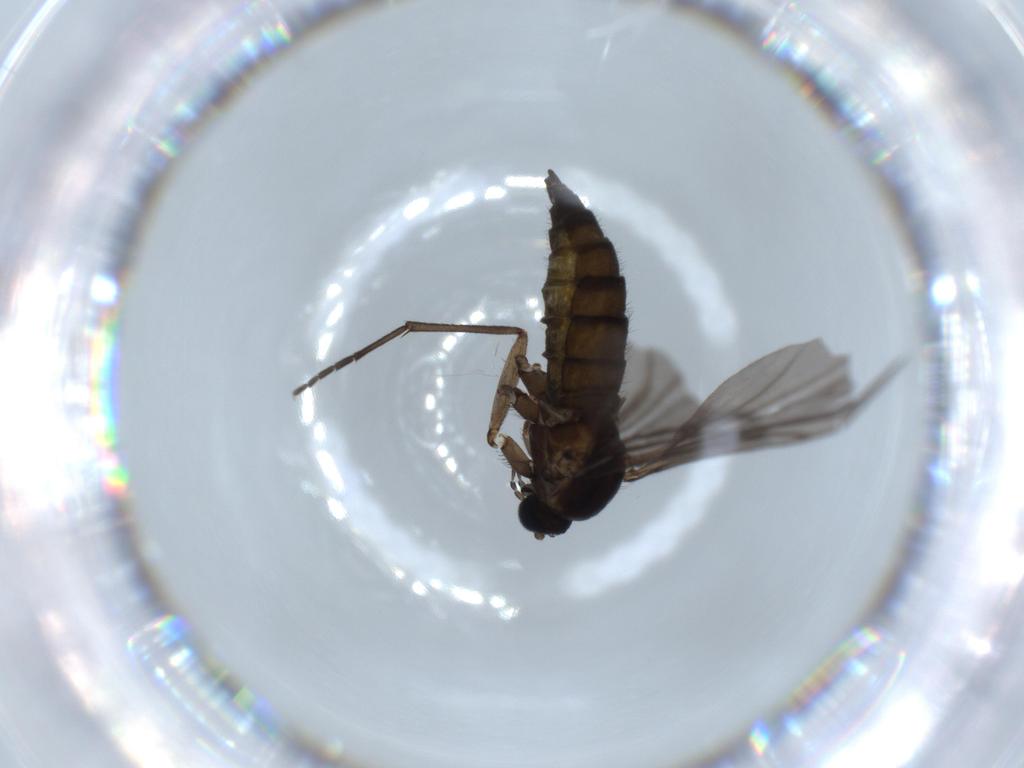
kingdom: Animalia
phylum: Arthropoda
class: Insecta
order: Diptera
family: Sciaridae
